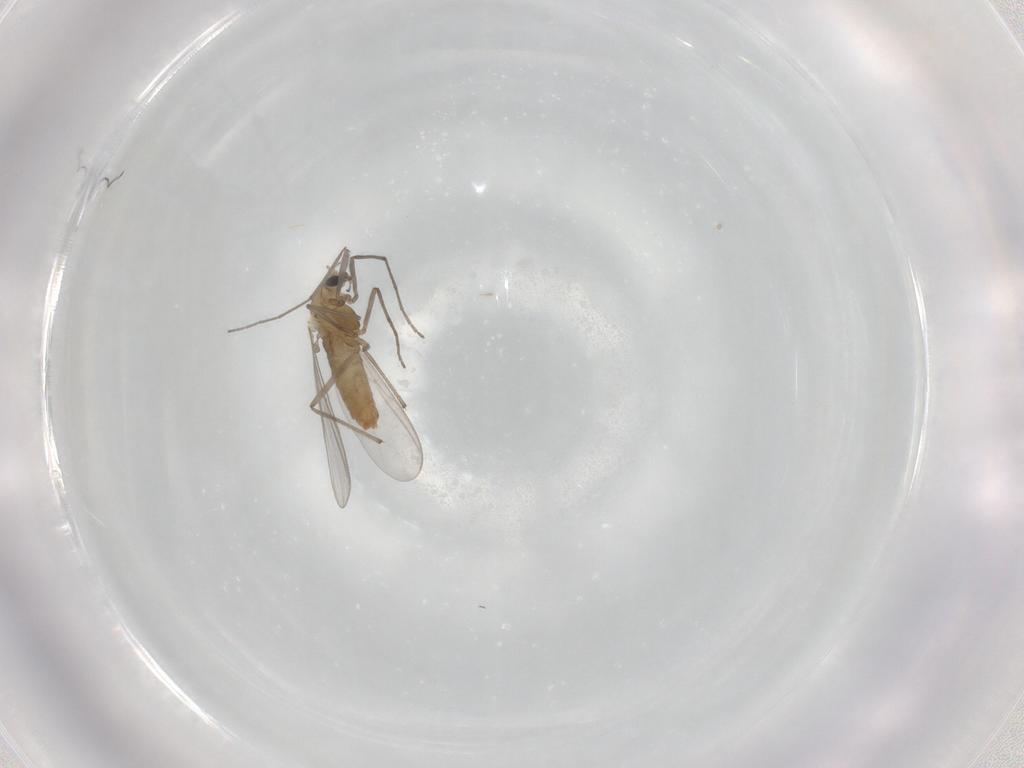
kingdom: Animalia
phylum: Arthropoda
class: Insecta
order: Diptera
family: Chironomidae
